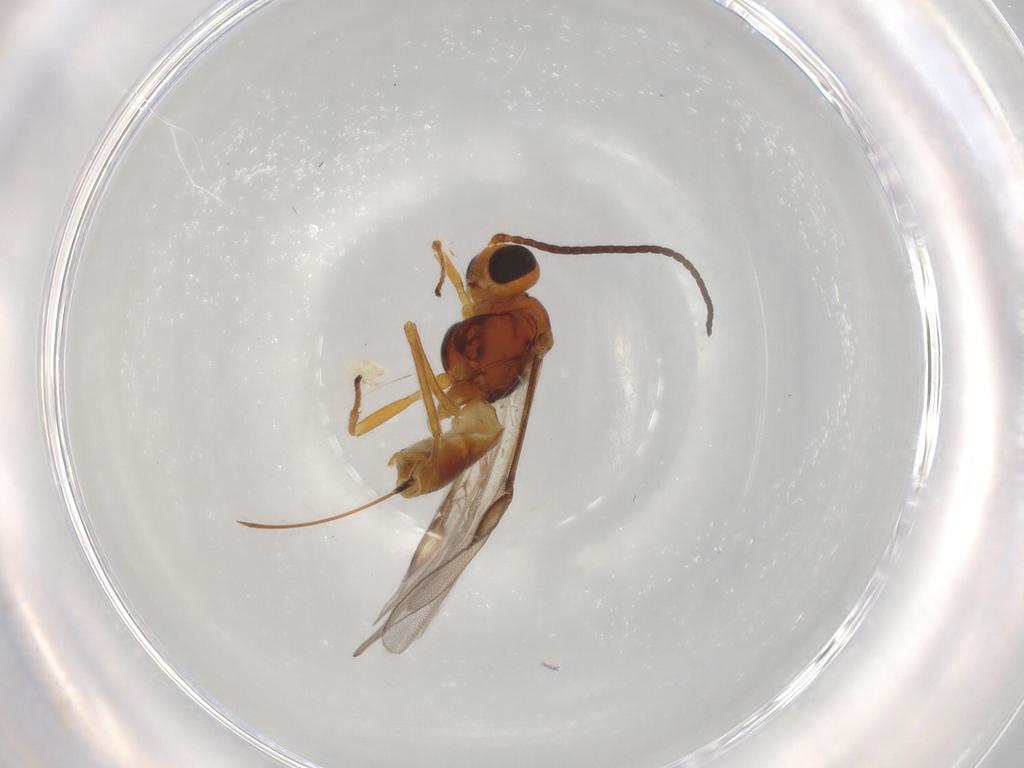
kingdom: Animalia
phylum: Arthropoda
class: Insecta
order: Hymenoptera
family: Braconidae
